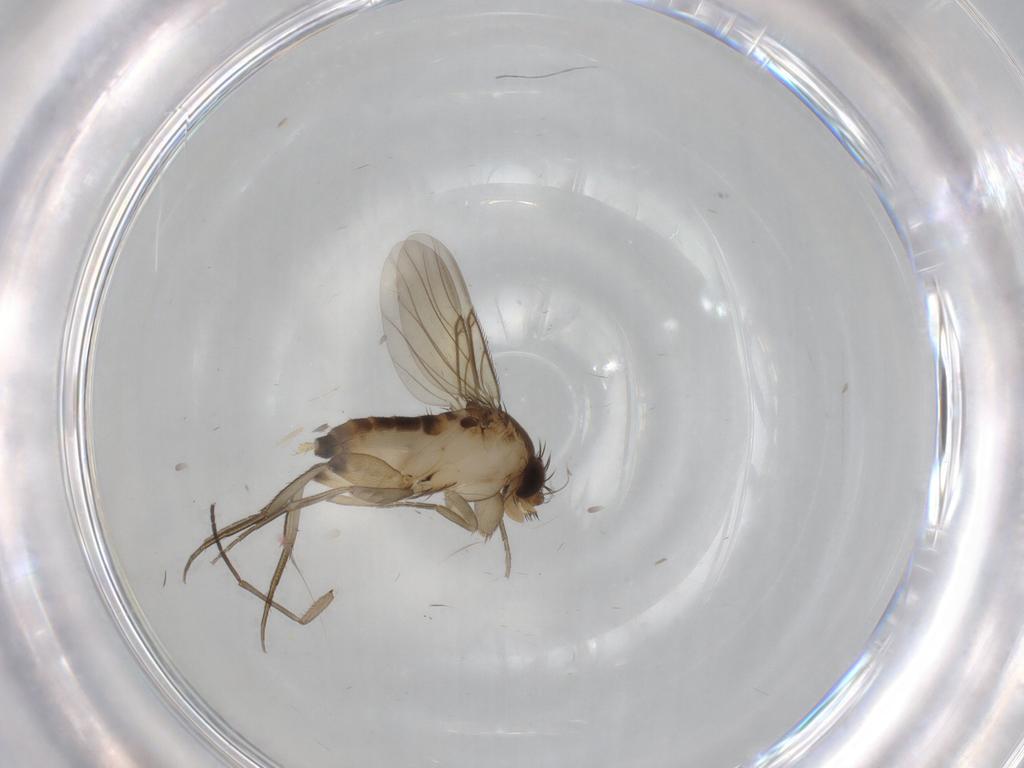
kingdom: Animalia
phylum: Arthropoda
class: Insecta
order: Diptera
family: Phoridae
